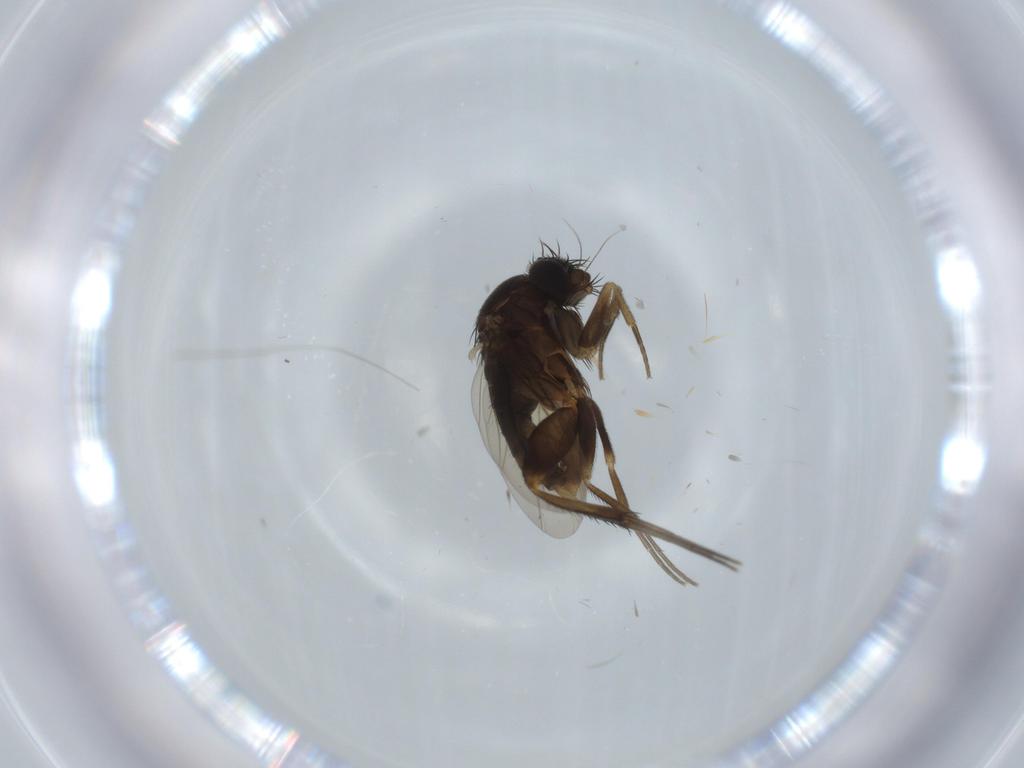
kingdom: Animalia
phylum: Arthropoda
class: Insecta
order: Diptera
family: Phoridae
